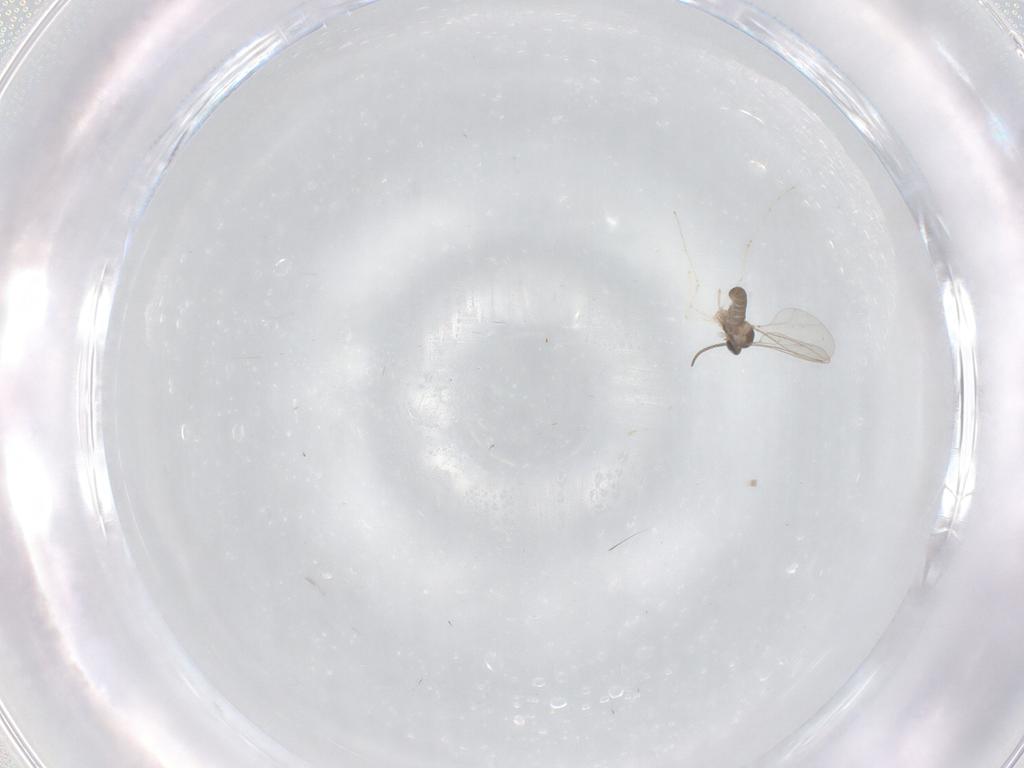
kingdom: Animalia
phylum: Arthropoda
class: Insecta
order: Diptera
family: Cecidomyiidae
